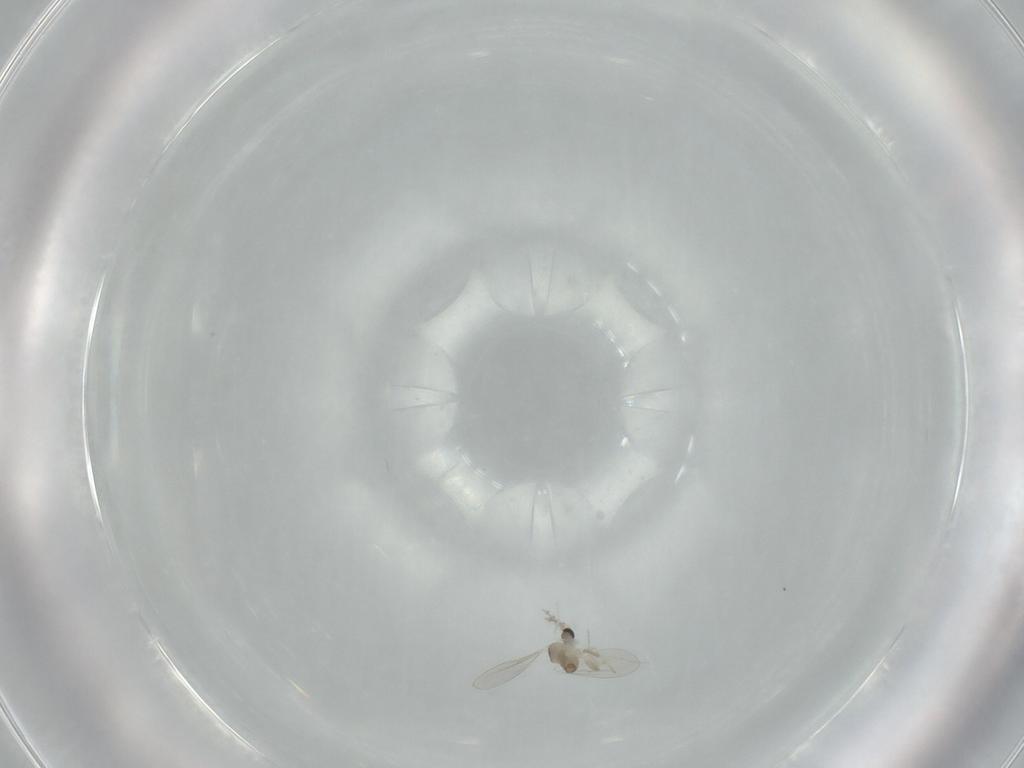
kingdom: Animalia
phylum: Arthropoda
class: Insecta
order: Diptera
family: Cecidomyiidae
